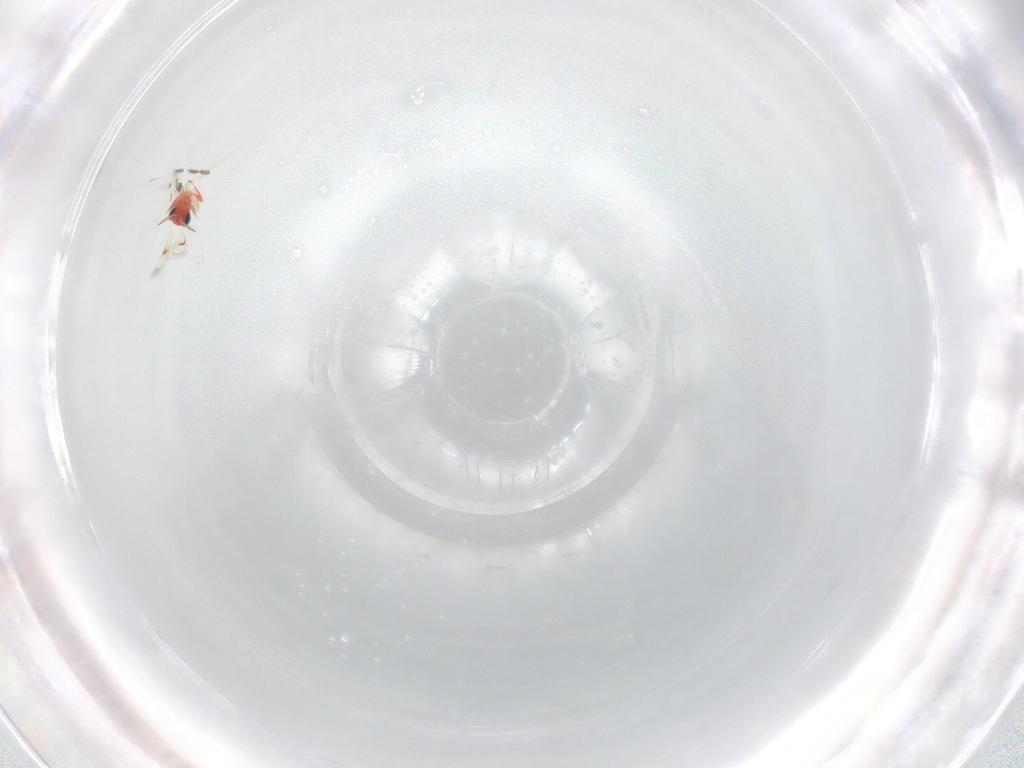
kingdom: Animalia
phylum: Arthropoda
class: Insecta
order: Hymenoptera
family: Trichogrammatidae
